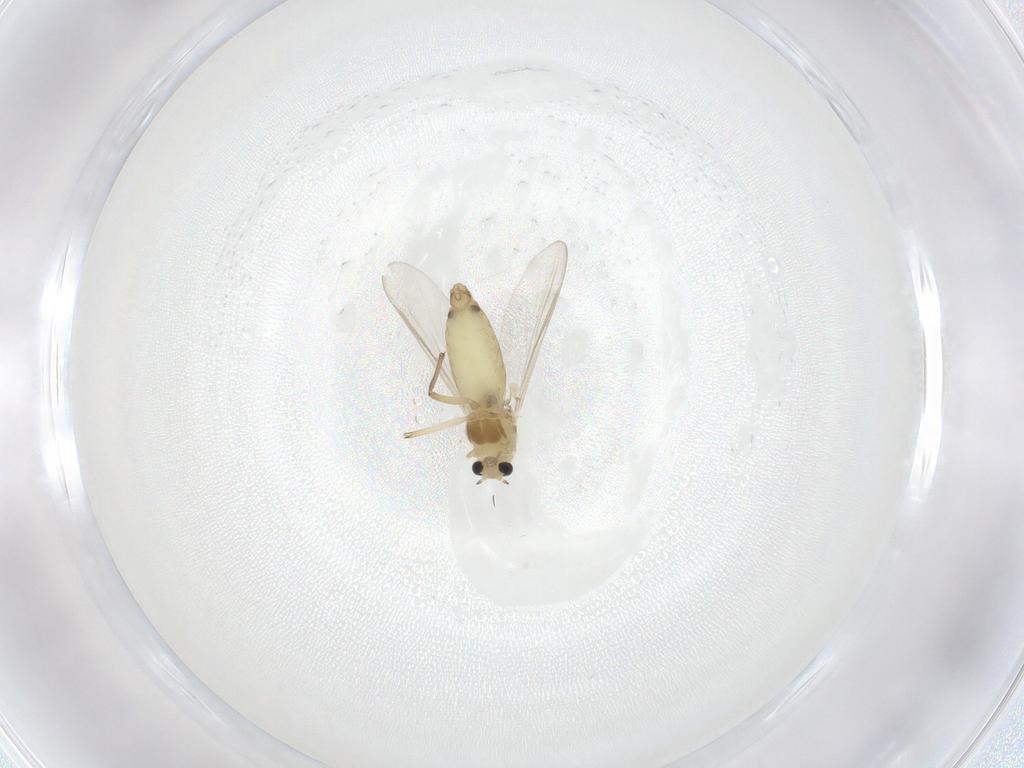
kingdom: Animalia
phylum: Arthropoda
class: Insecta
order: Diptera
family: Chironomidae
